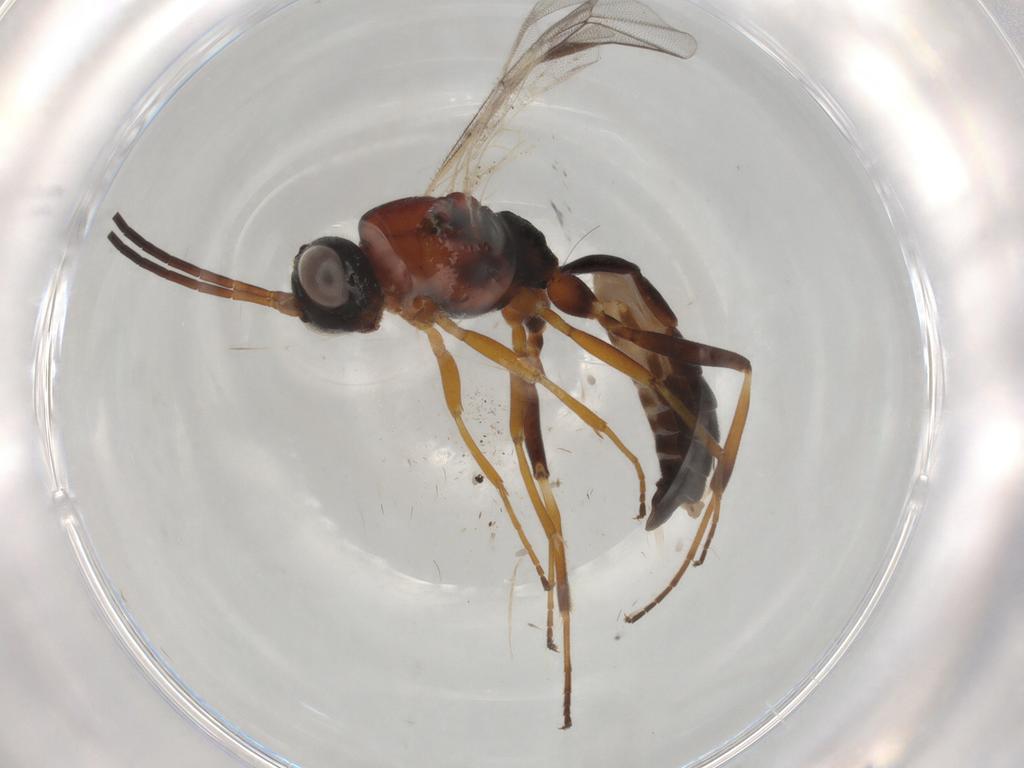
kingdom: Animalia
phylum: Arthropoda
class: Insecta
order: Hymenoptera
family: Ichneumonidae
